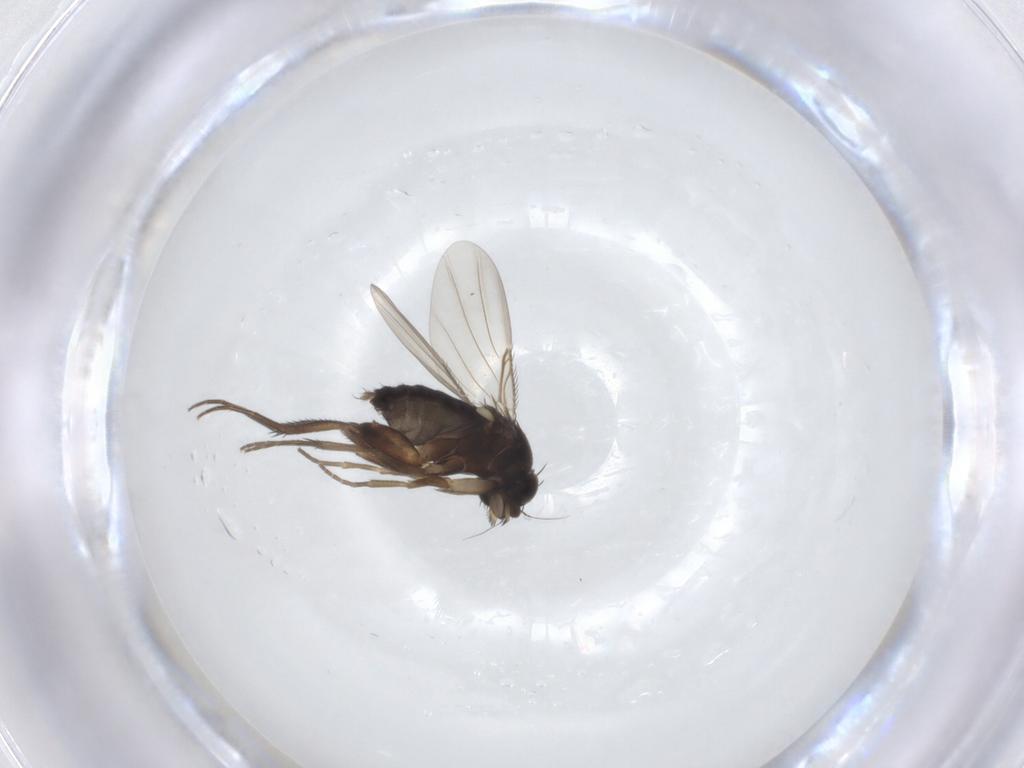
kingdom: Animalia
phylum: Arthropoda
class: Insecta
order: Diptera
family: Phoridae
